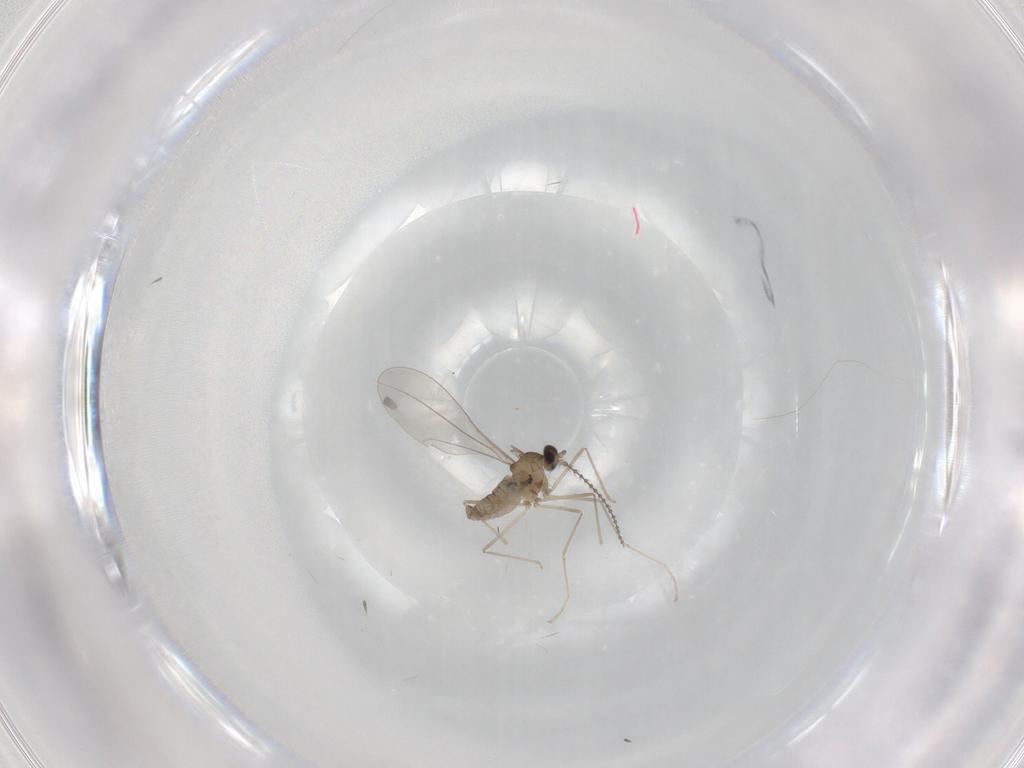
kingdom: Animalia
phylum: Arthropoda
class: Insecta
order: Diptera
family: Cecidomyiidae
